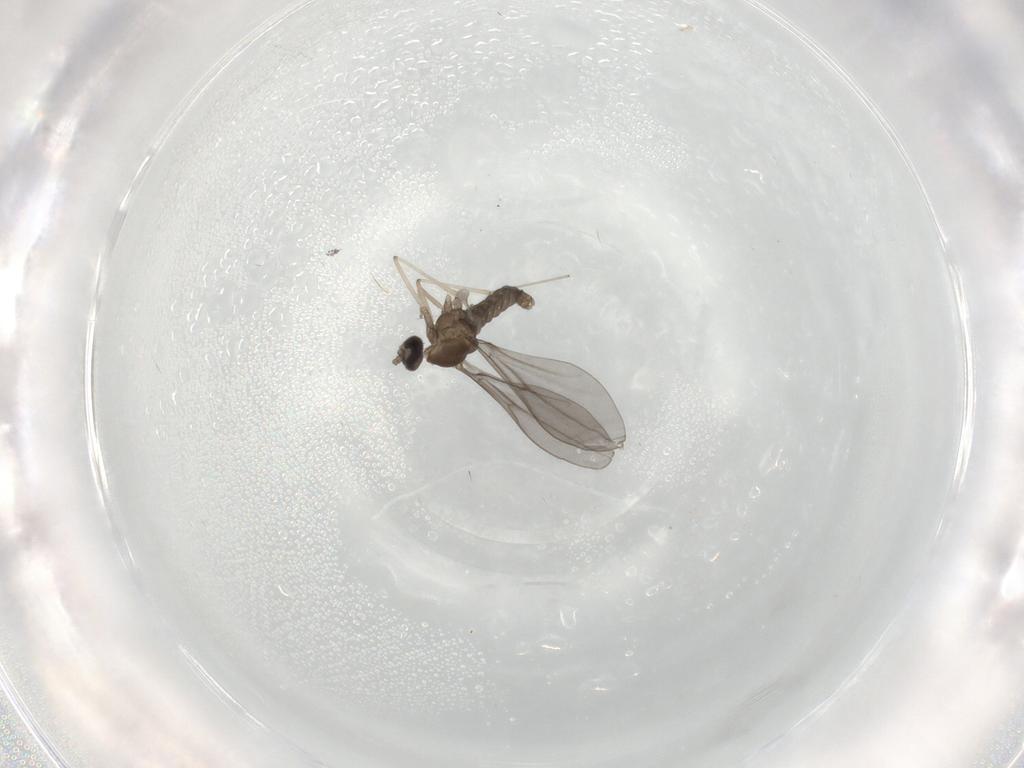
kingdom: Animalia
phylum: Arthropoda
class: Insecta
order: Diptera
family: Cecidomyiidae
